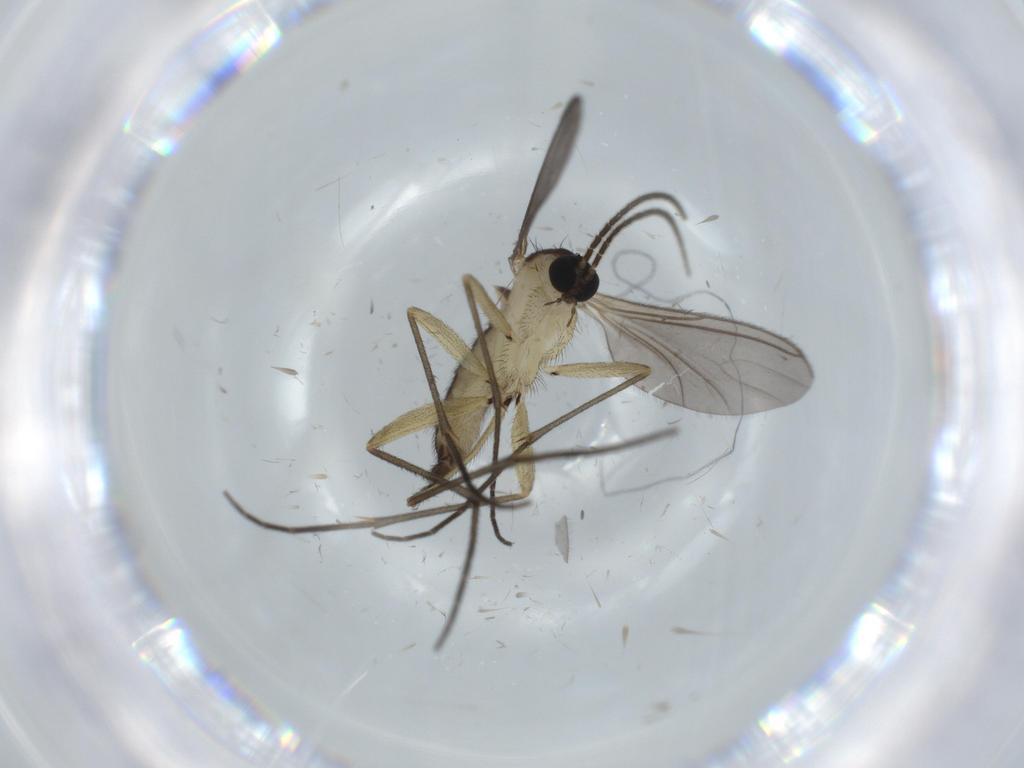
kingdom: Animalia
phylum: Arthropoda
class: Insecta
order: Diptera
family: Sciaridae
